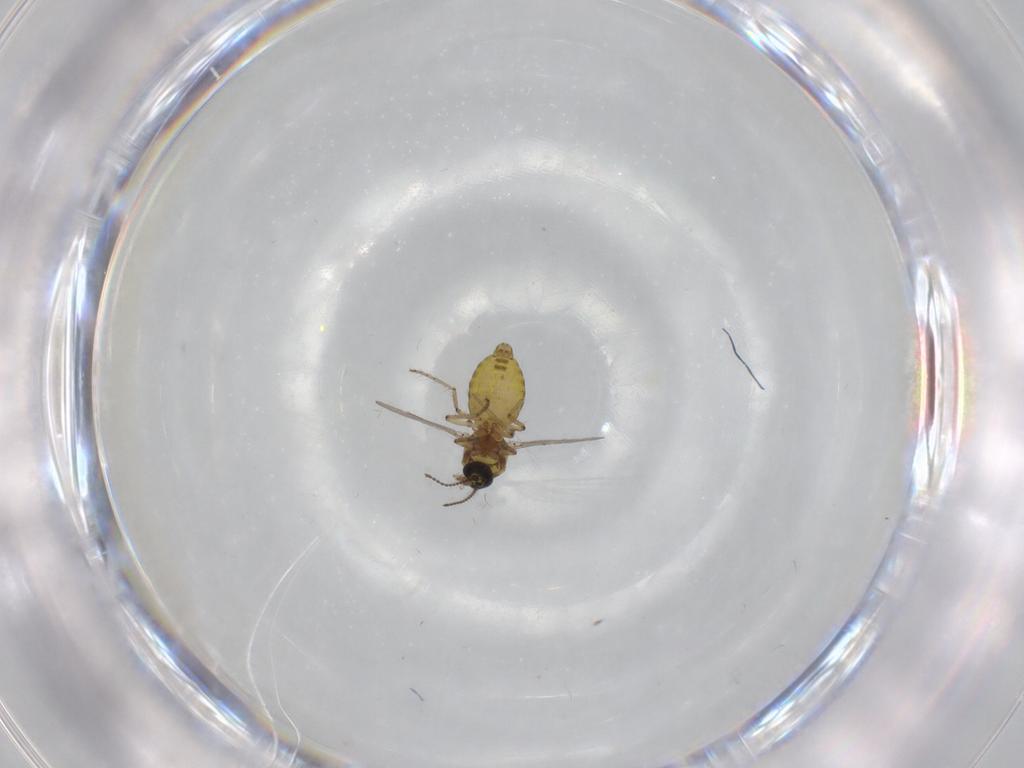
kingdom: Animalia
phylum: Arthropoda
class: Insecta
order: Diptera
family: Ceratopogonidae
